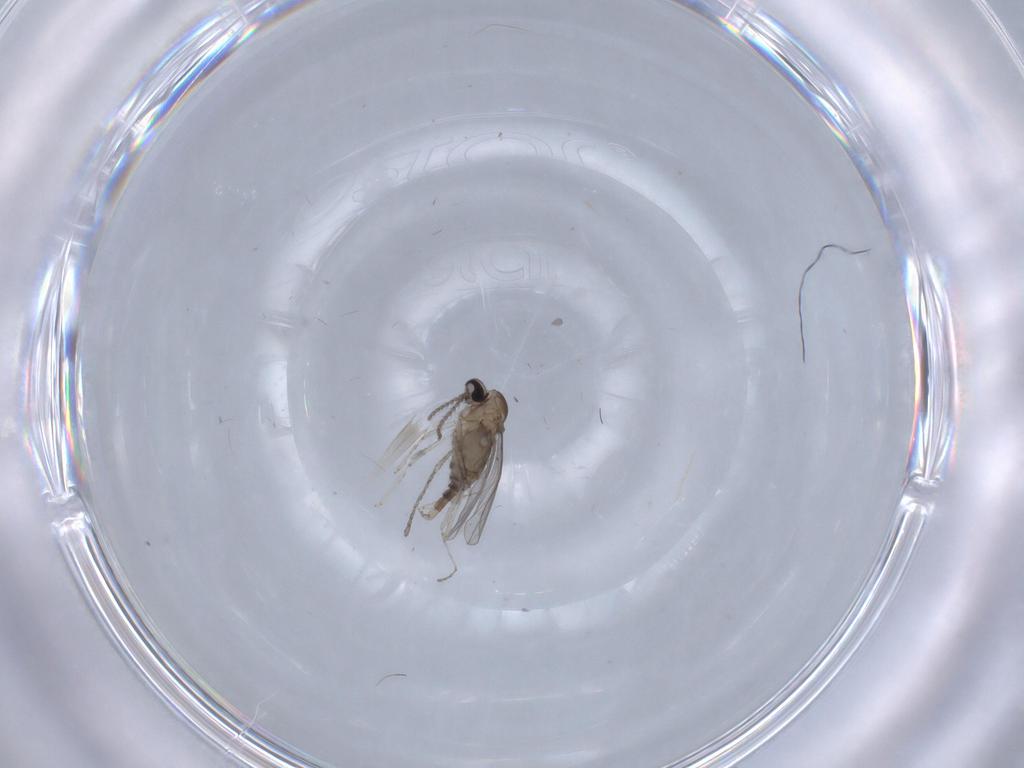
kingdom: Animalia
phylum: Arthropoda
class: Insecta
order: Diptera
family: Cecidomyiidae
